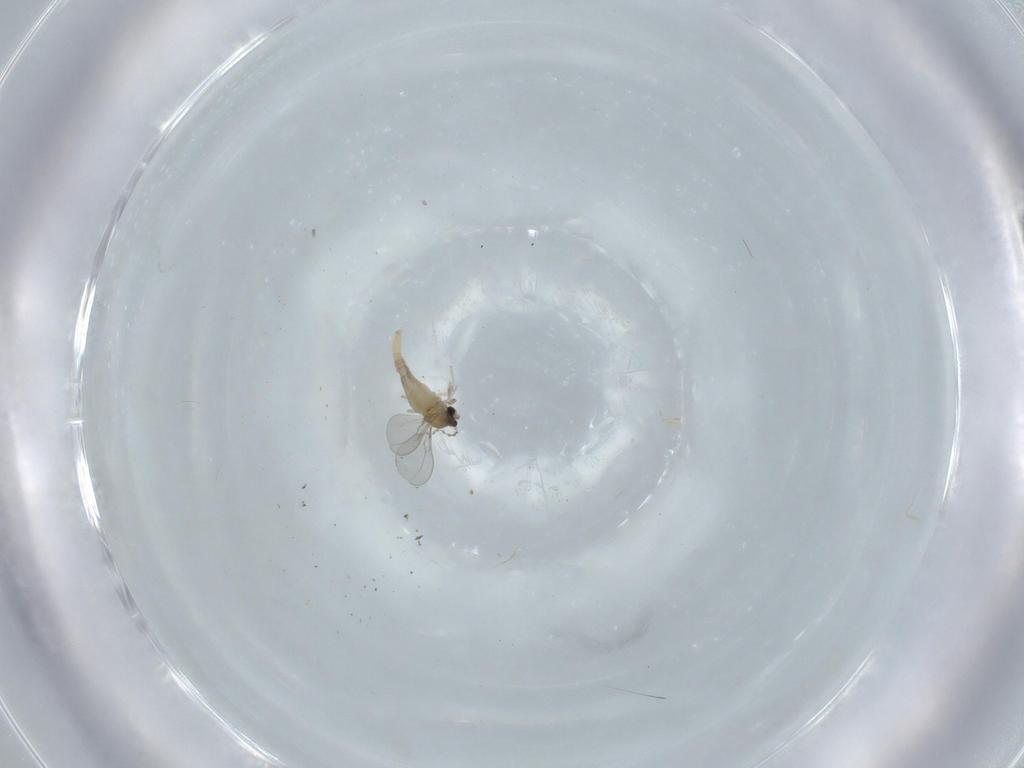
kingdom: Animalia
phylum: Arthropoda
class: Insecta
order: Diptera
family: Cecidomyiidae
